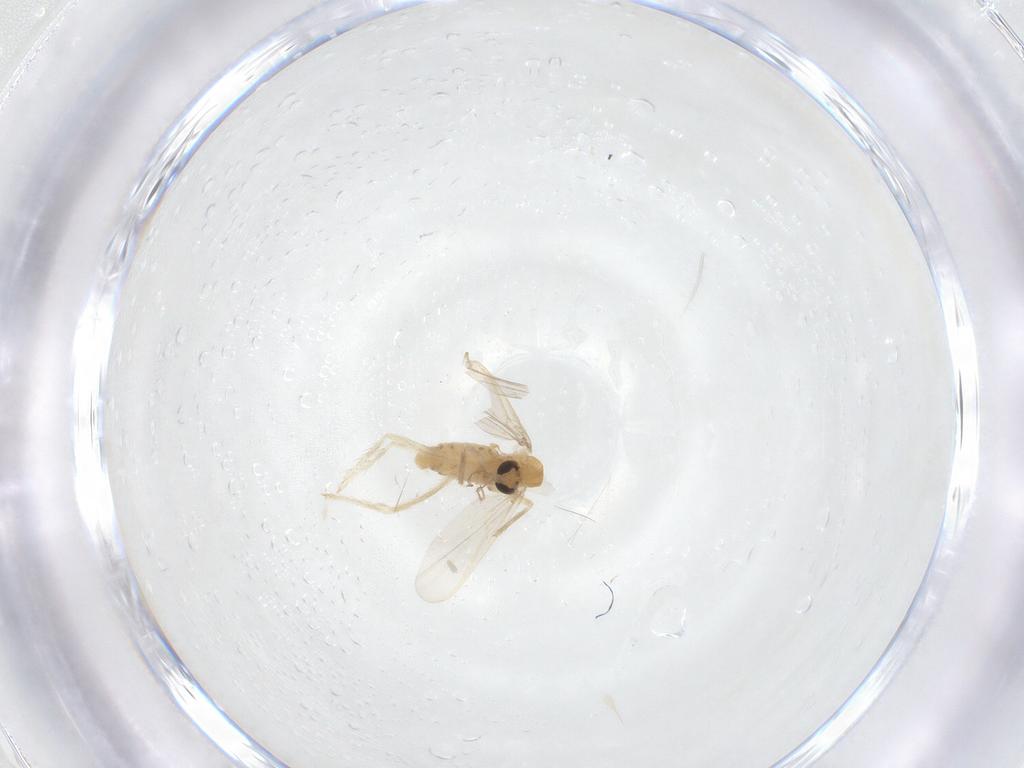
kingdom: Animalia
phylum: Arthropoda
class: Insecta
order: Diptera
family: Chironomidae
